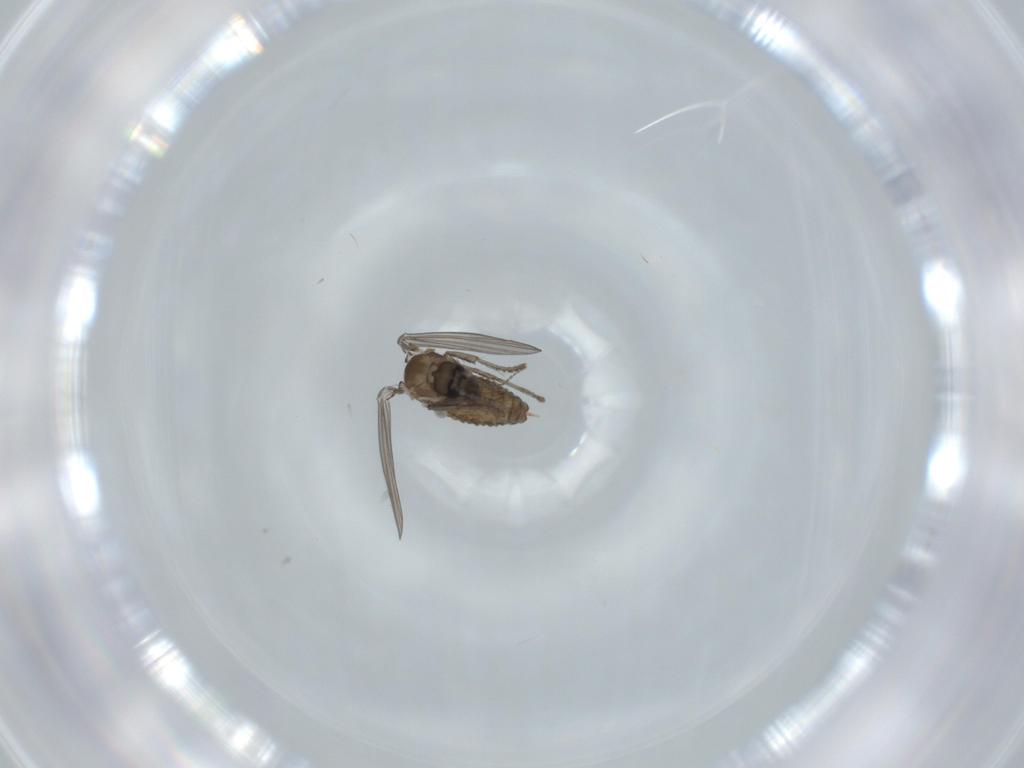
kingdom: Animalia
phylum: Arthropoda
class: Insecta
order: Diptera
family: Psychodidae
